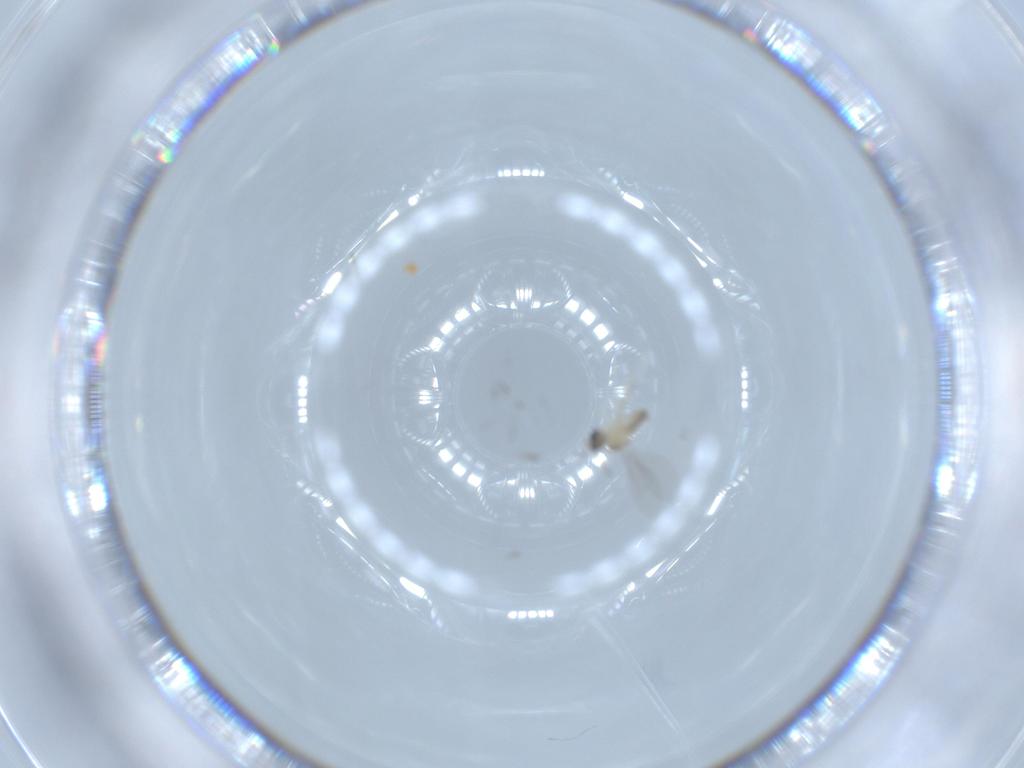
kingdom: Animalia
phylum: Arthropoda
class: Insecta
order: Diptera
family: Cecidomyiidae
